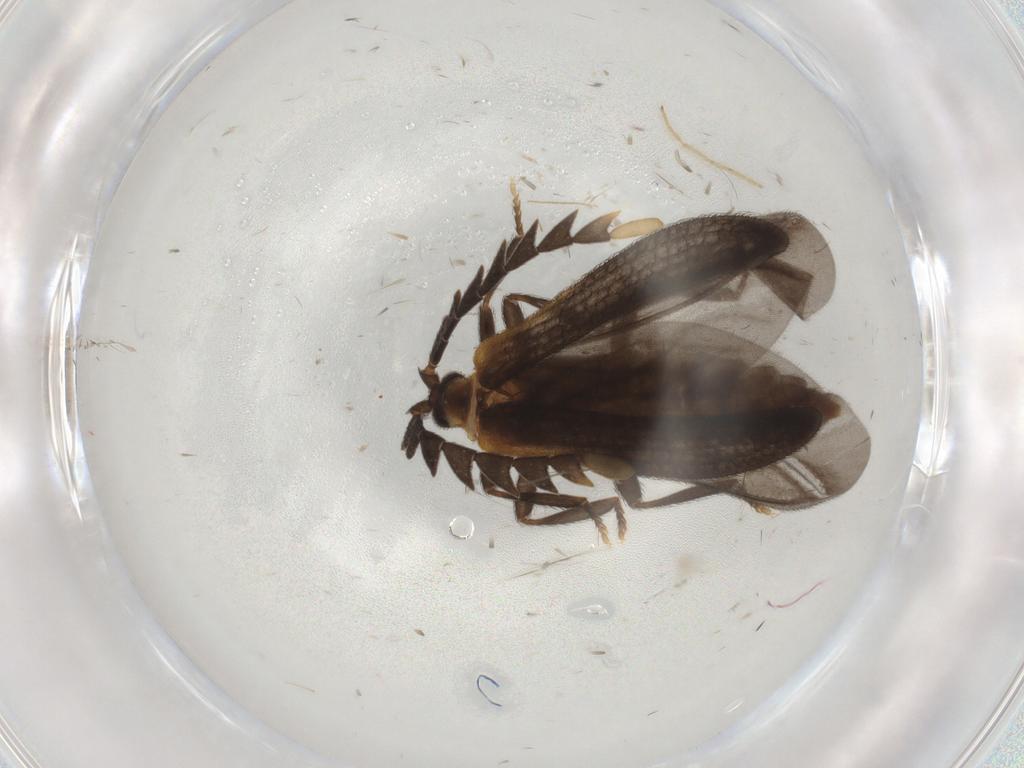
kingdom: Animalia
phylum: Arthropoda
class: Insecta
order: Coleoptera
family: Lycidae
